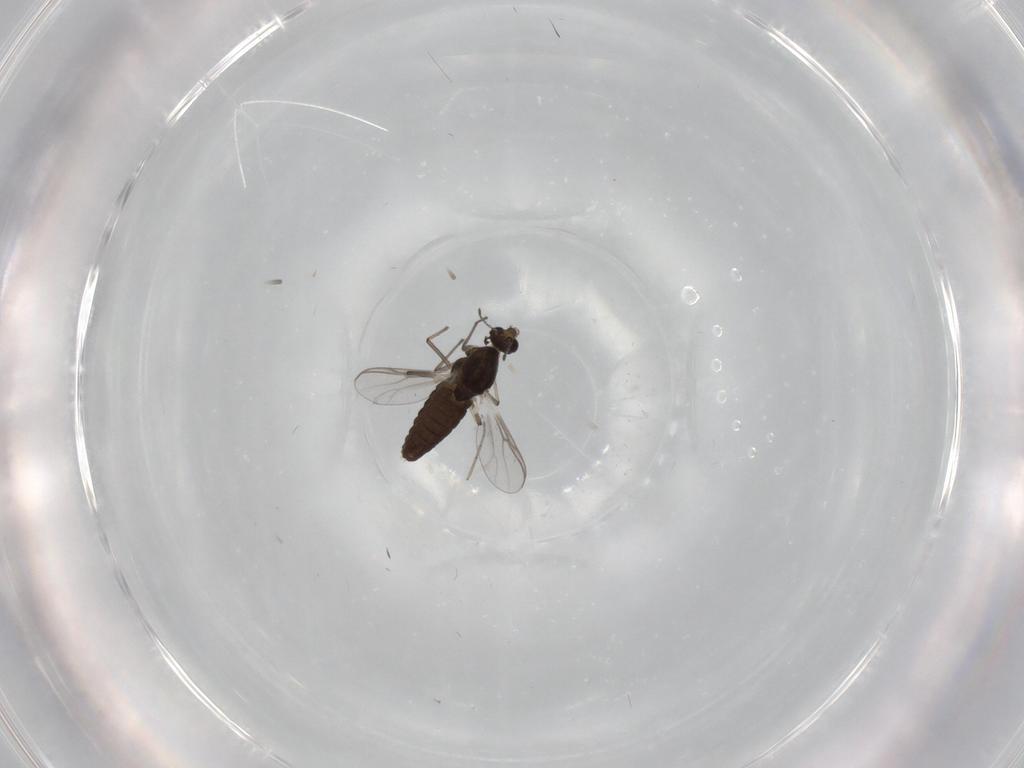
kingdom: Animalia
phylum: Arthropoda
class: Insecta
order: Diptera
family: Chironomidae
